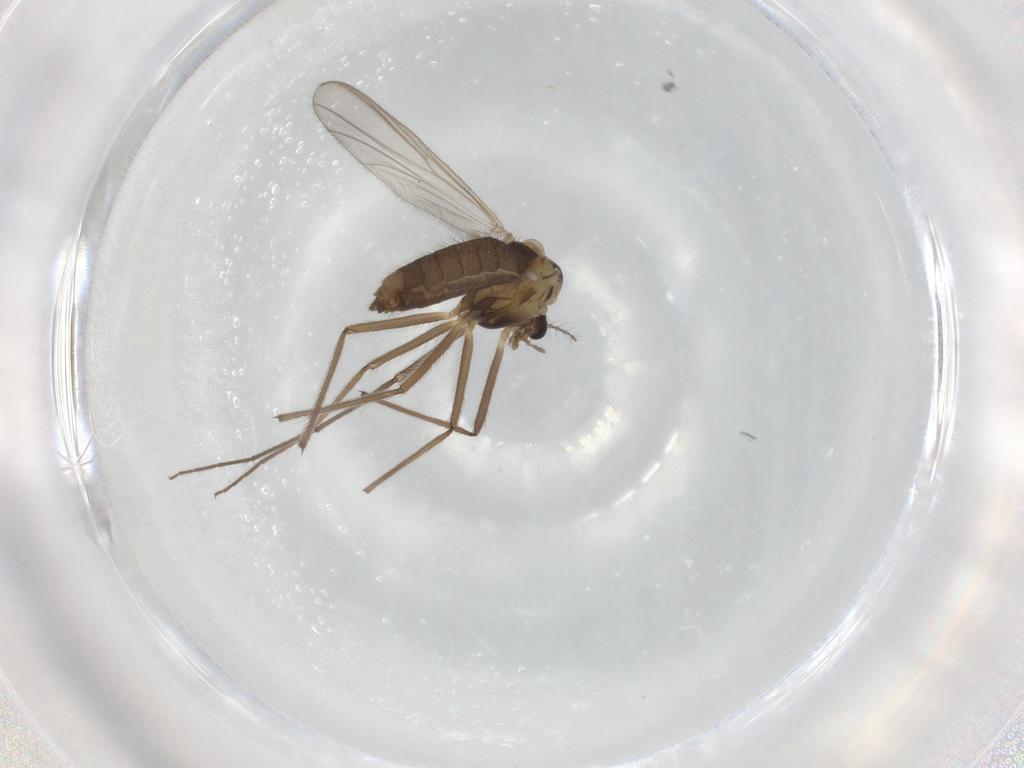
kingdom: Animalia
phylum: Arthropoda
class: Insecta
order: Diptera
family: Chironomidae
